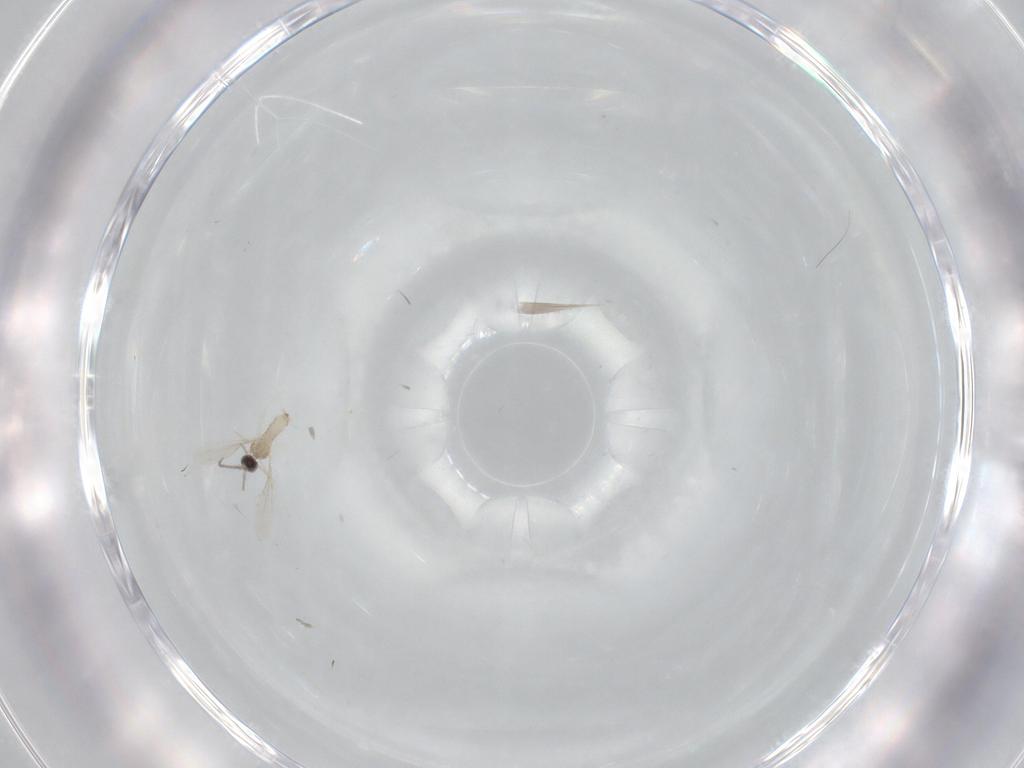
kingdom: Animalia
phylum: Arthropoda
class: Insecta
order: Diptera
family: Cecidomyiidae
